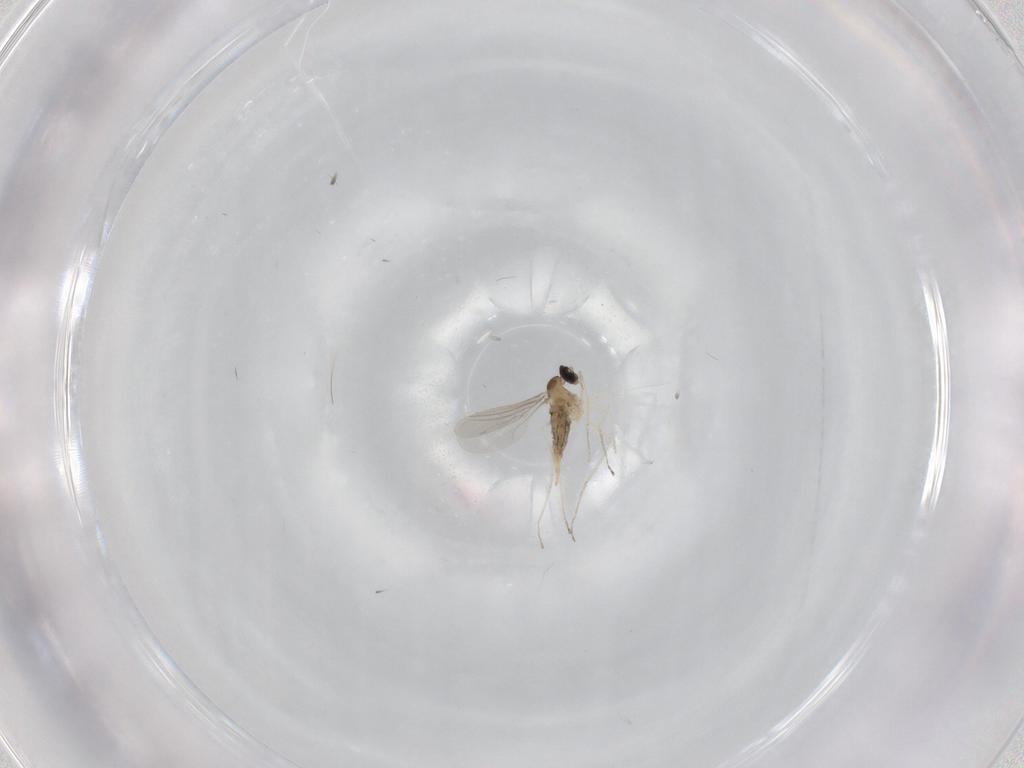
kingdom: Animalia
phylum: Arthropoda
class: Insecta
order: Diptera
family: Cecidomyiidae
